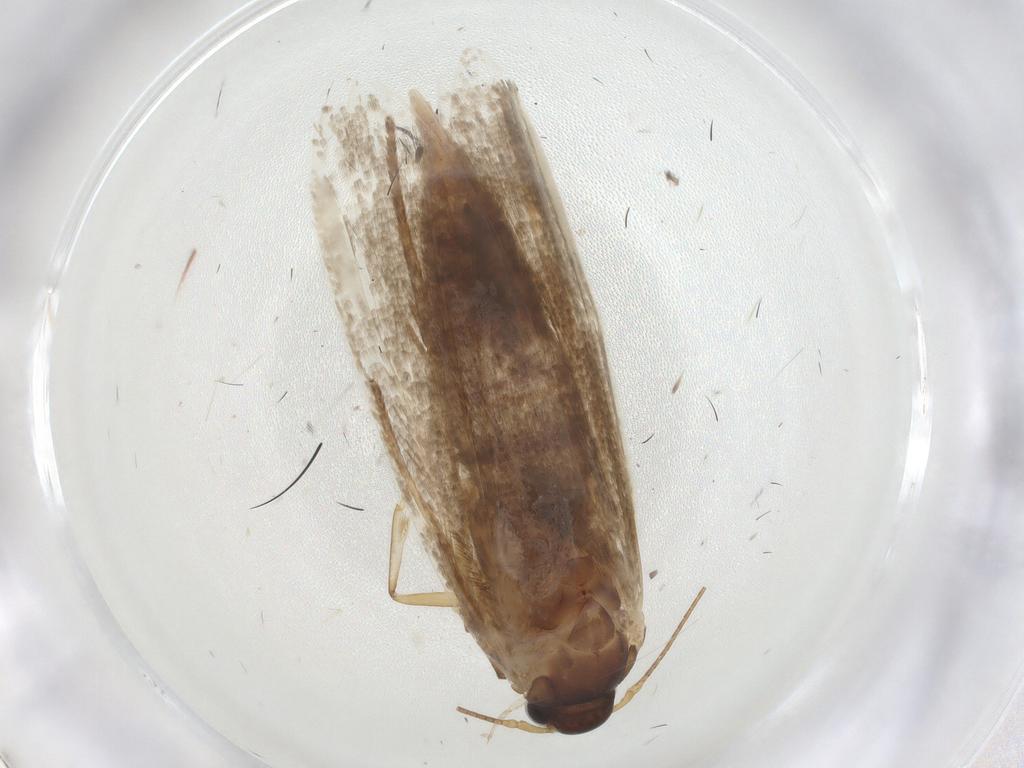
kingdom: Animalia
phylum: Arthropoda
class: Insecta
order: Lepidoptera
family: Blastobasidae
